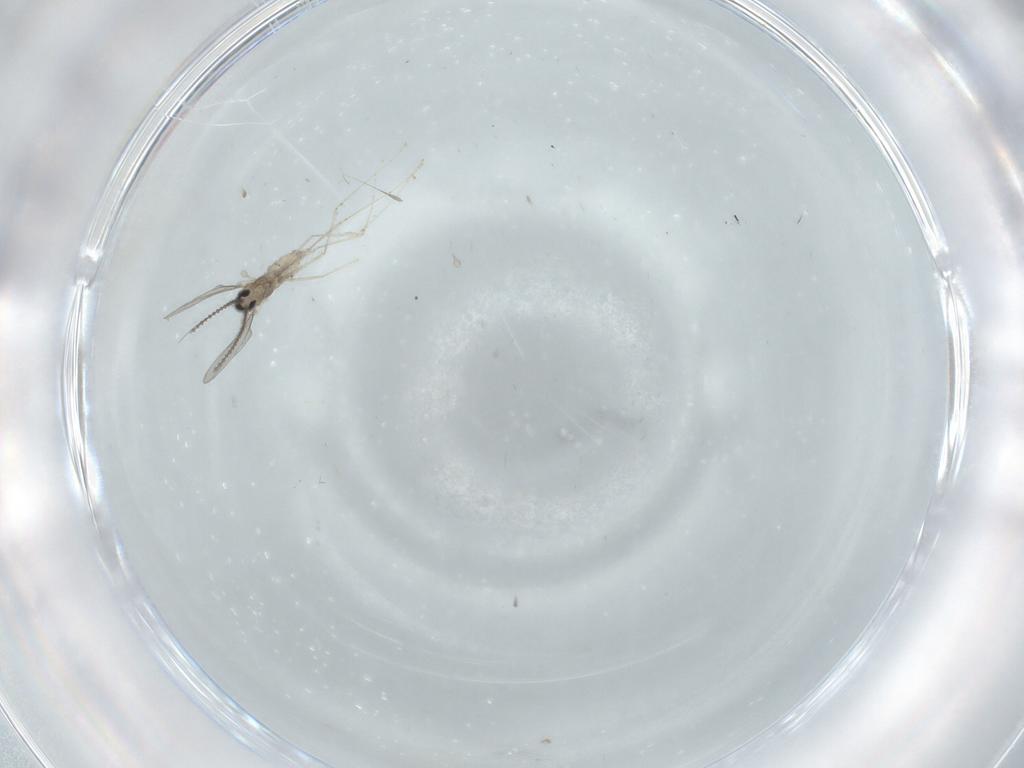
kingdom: Animalia
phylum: Arthropoda
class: Insecta
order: Diptera
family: Cecidomyiidae
